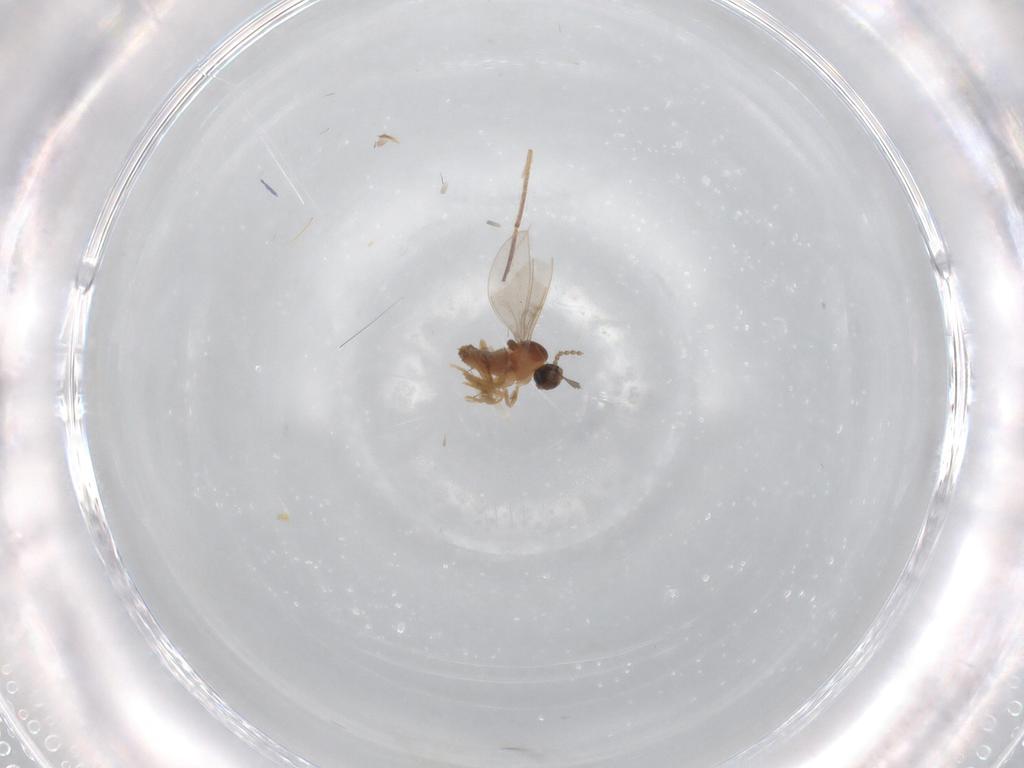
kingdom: Animalia
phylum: Arthropoda
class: Insecta
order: Diptera
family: Cecidomyiidae
